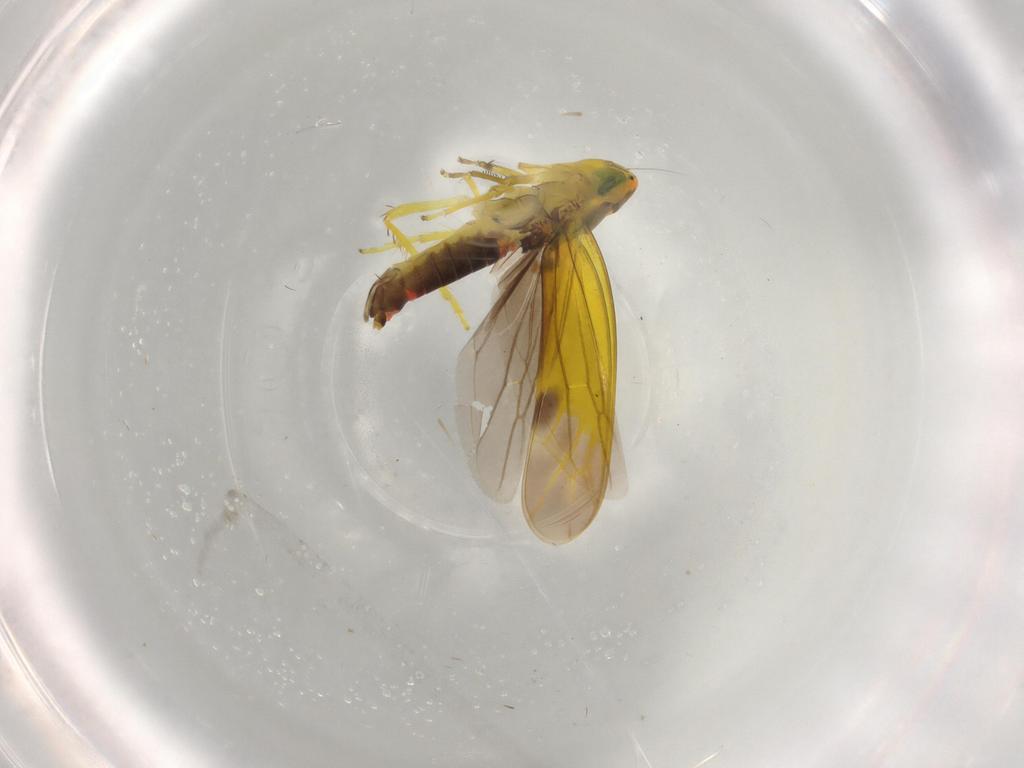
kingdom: Animalia
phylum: Arthropoda
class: Insecta
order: Hemiptera
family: Cicadellidae
